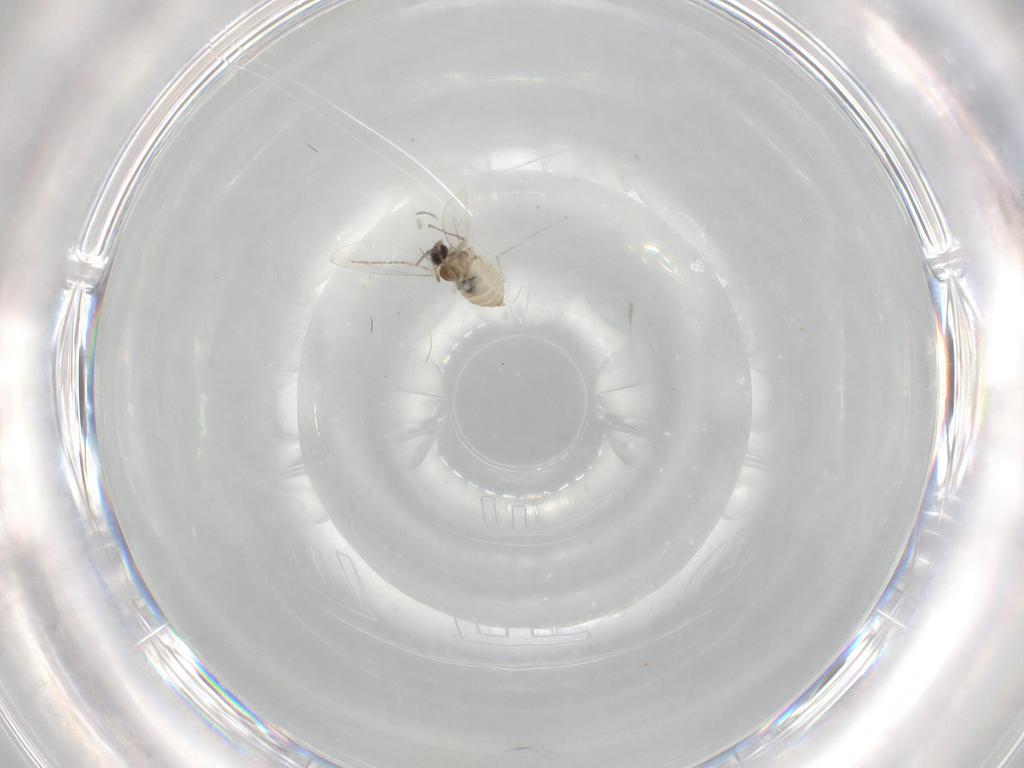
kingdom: Animalia
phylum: Arthropoda
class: Insecta
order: Diptera
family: Cecidomyiidae
